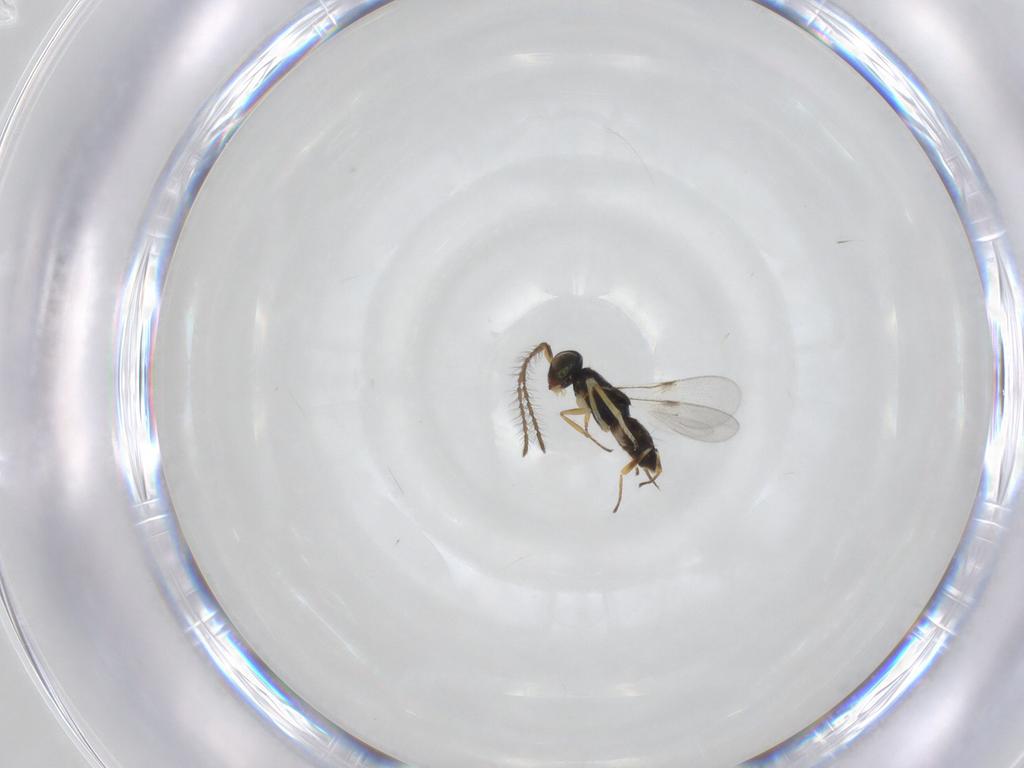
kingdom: Animalia
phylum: Arthropoda
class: Insecta
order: Hymenoptera
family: Encyrtidae
